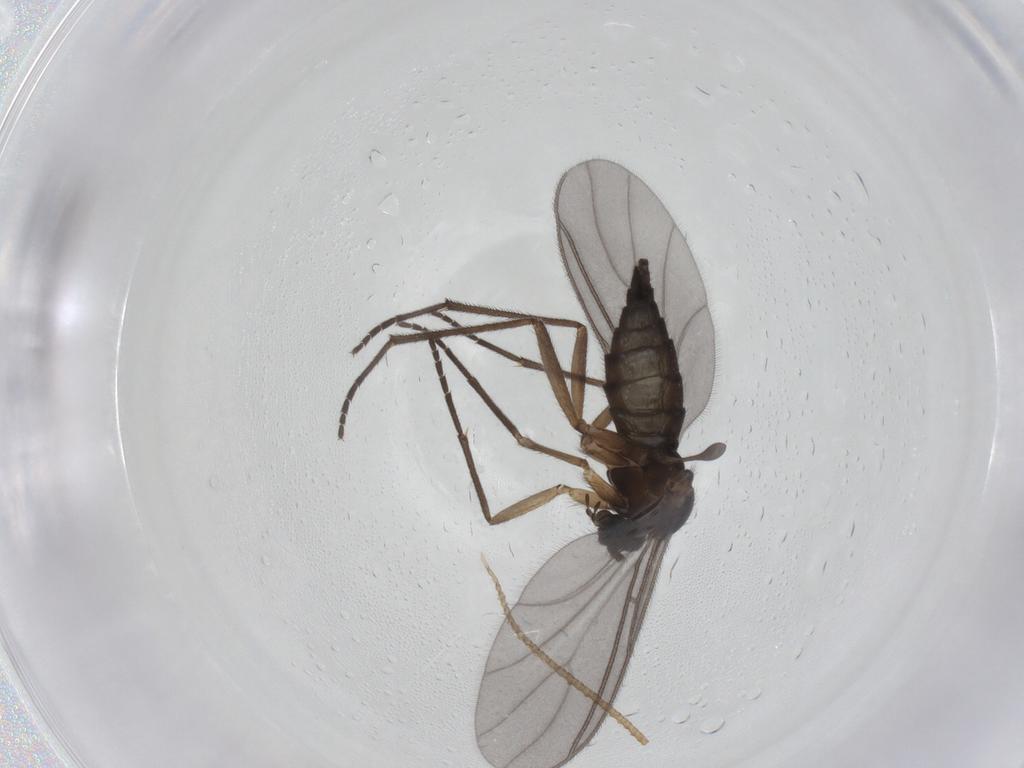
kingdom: Animalia
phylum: Arthropoda
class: Insecta
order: Diptera
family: Sciaridae
